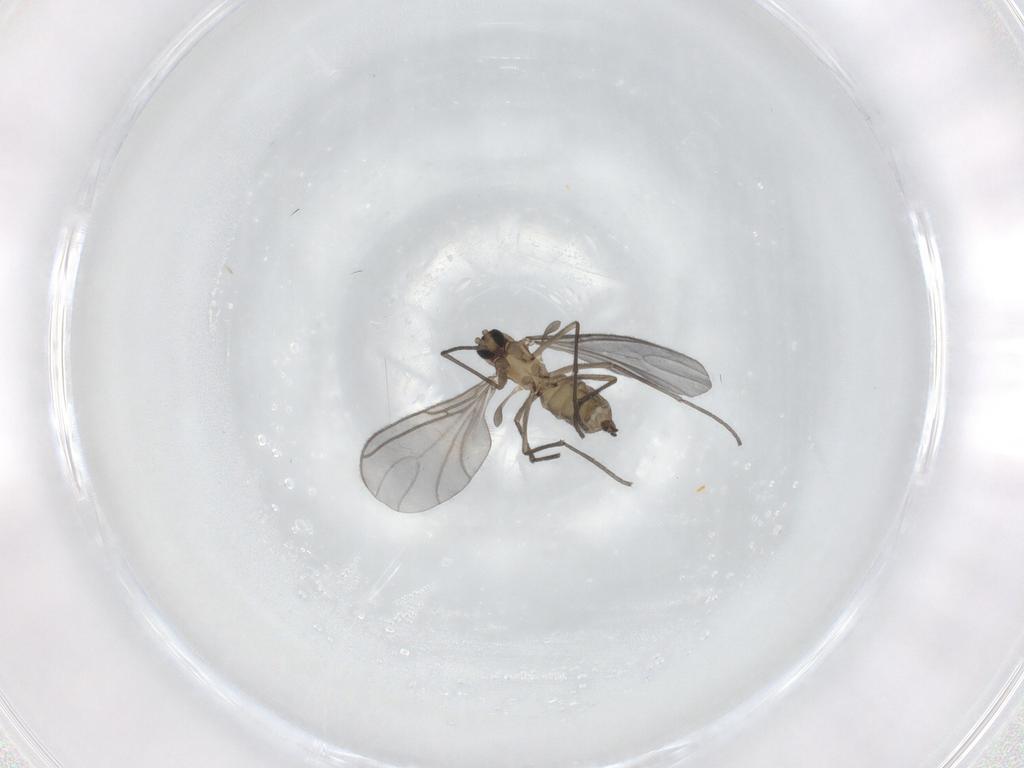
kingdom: Animalia
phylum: Arthropoda
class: Insecta
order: Diptera
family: Sciaridae
